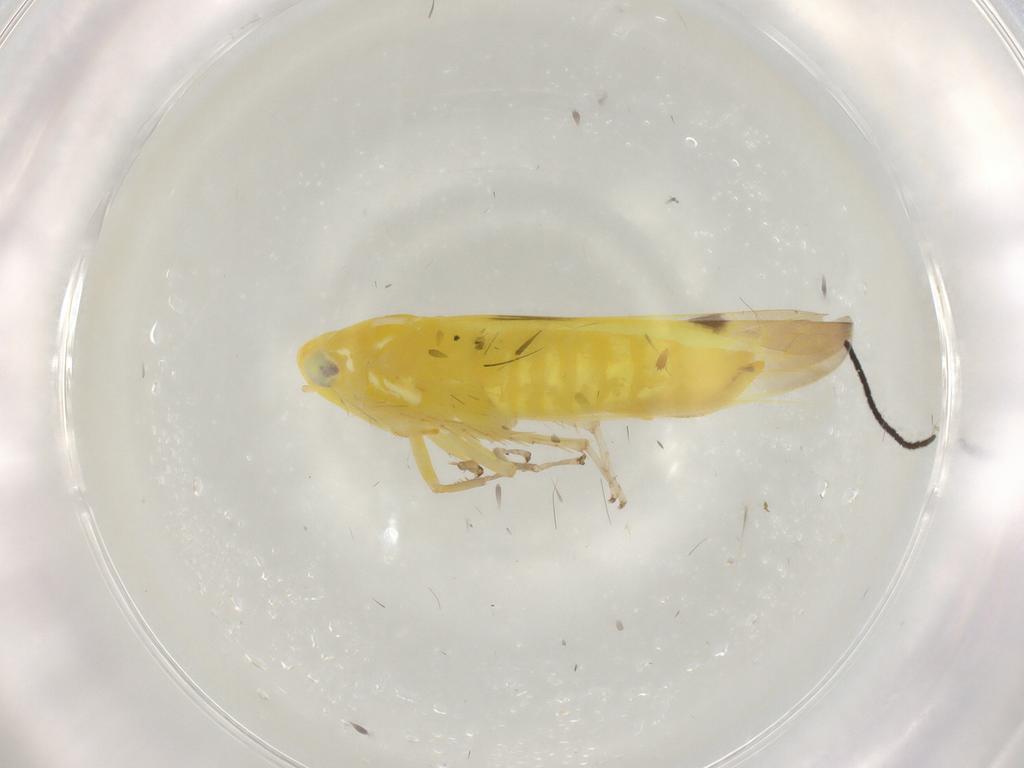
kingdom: Animalia
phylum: Arthropoda
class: Insecta
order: Hemiptera
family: Cicadellidae
